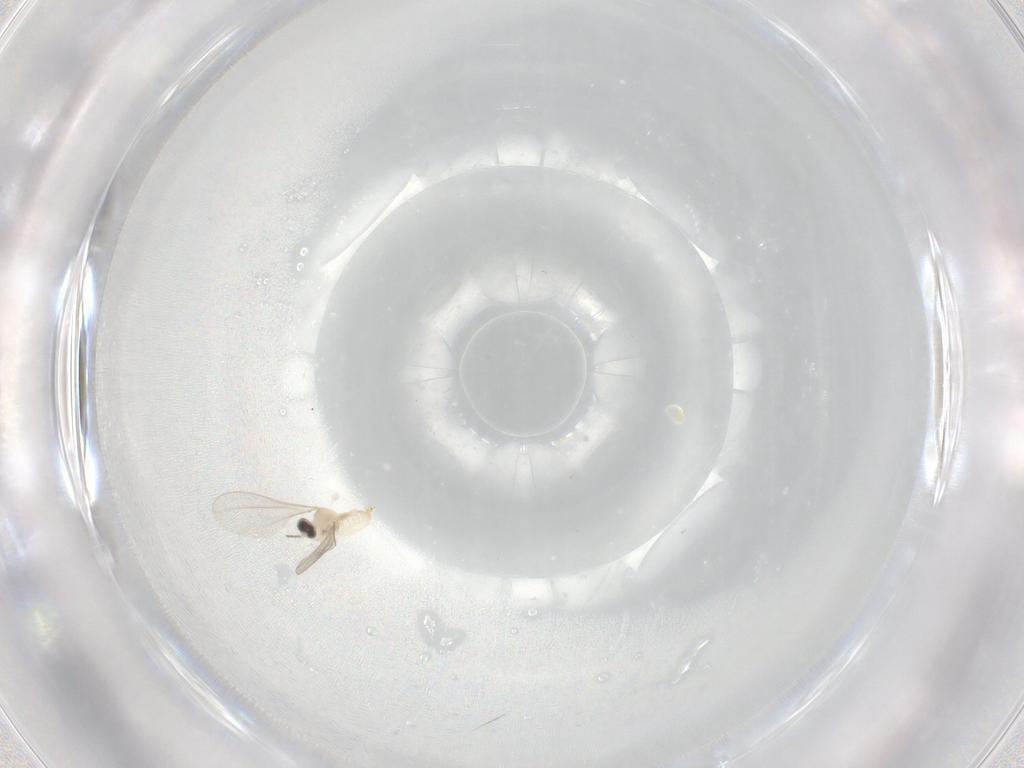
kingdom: Animalia
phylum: Arthropoda
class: Insecta
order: Diptera
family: Cecidomyiidae
